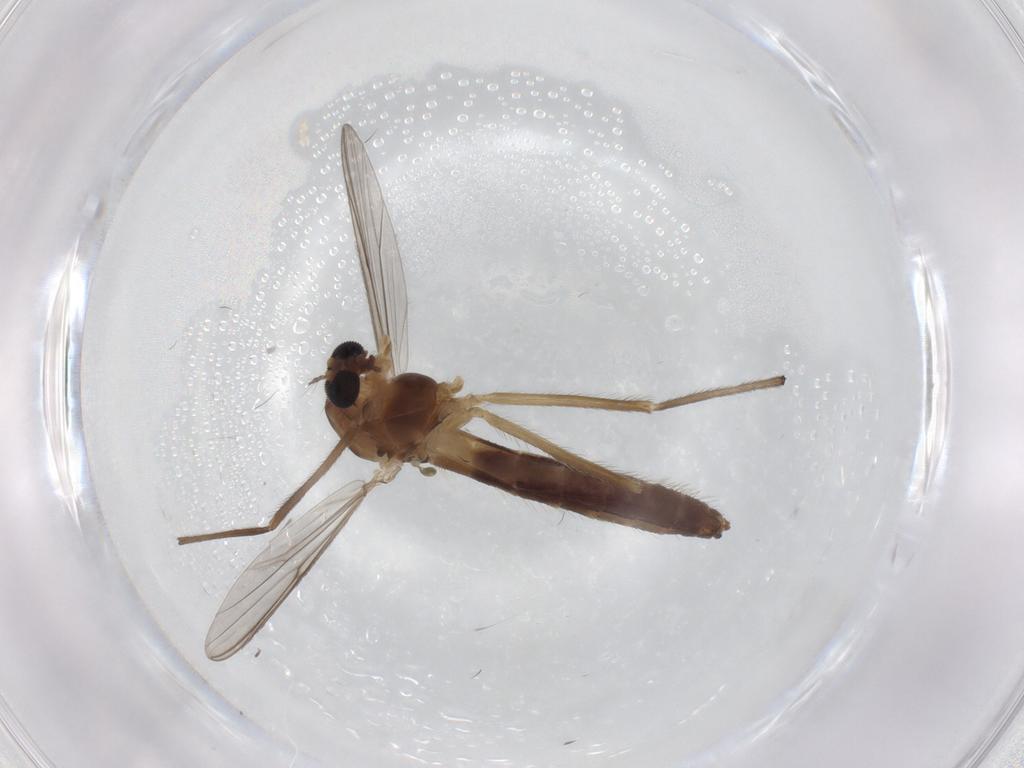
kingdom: Animalia
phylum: Arthropoda
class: Insecta
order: Diptera
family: Chironomidae
